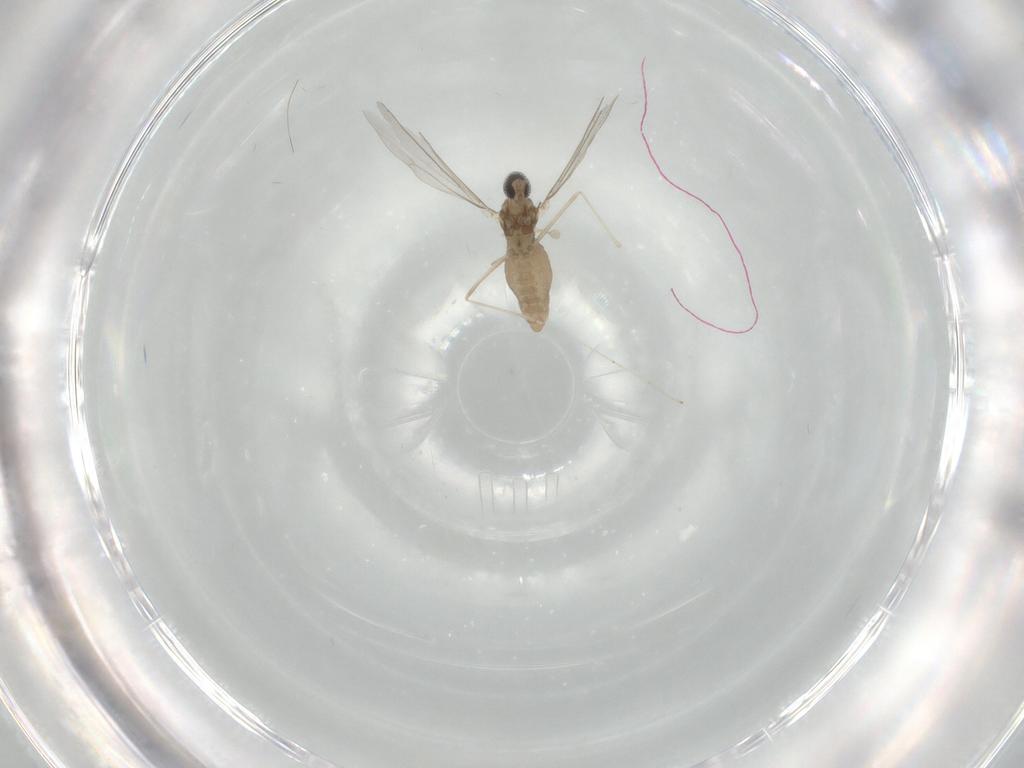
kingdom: Animalia
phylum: Arthropoda
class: Insecta
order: Diptera
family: Cecidomyiidae
